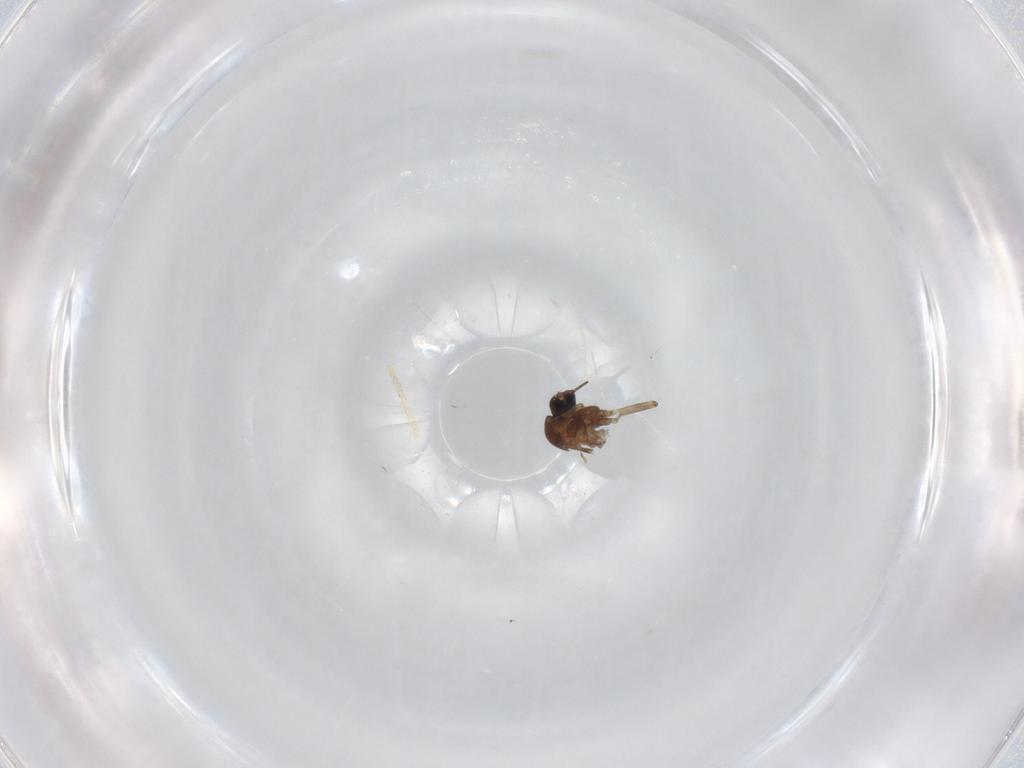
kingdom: Animalia
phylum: Arthropoda
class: Insecta
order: Diptera
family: Ceratopogonidae
